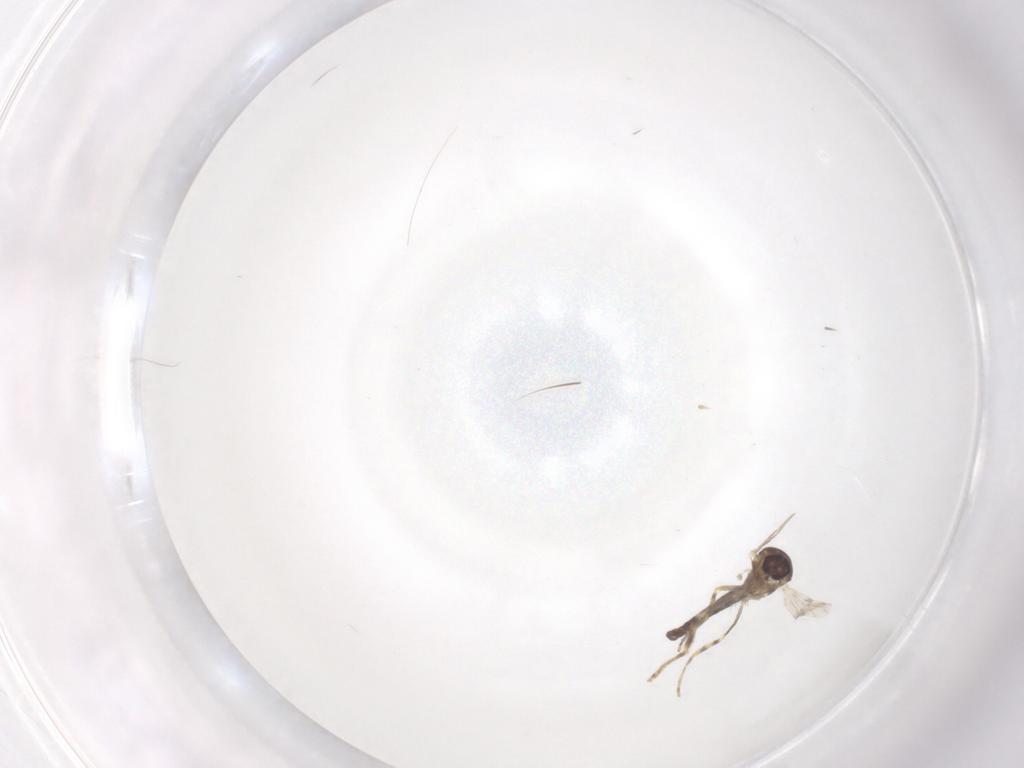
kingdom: Animalia
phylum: Arthropoda
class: Insecta
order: Diptera
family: Ceratopogonidae
